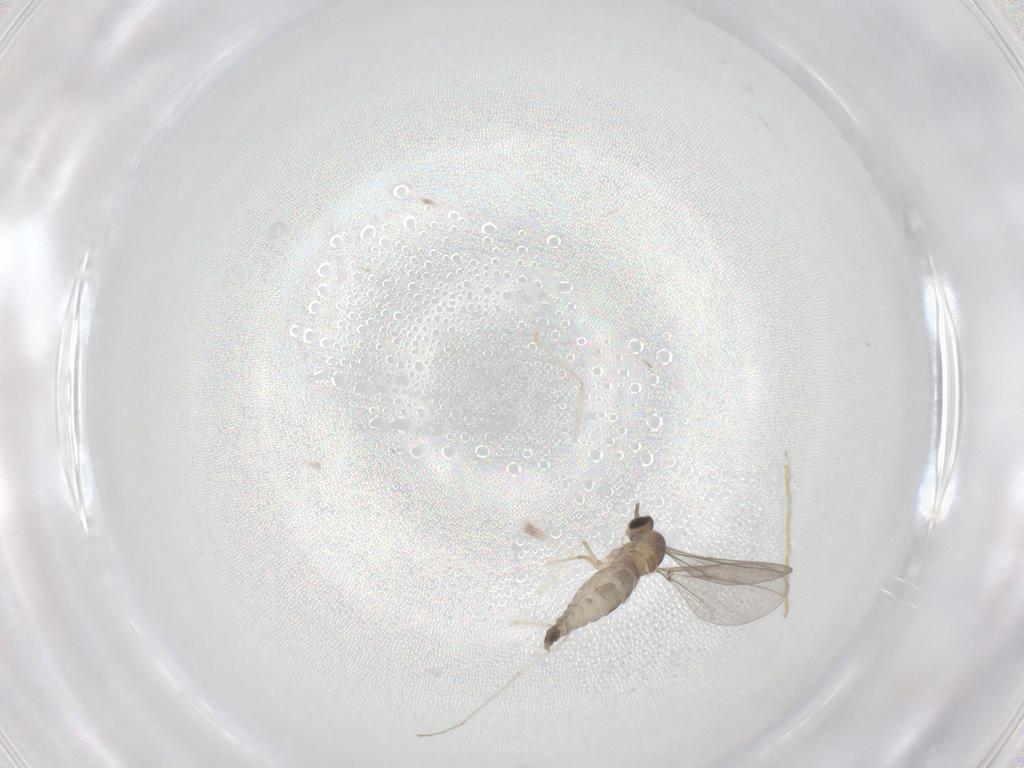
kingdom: Animalia
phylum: Arthropoda
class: Insecta
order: Diptera
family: Cecidomyiidae
